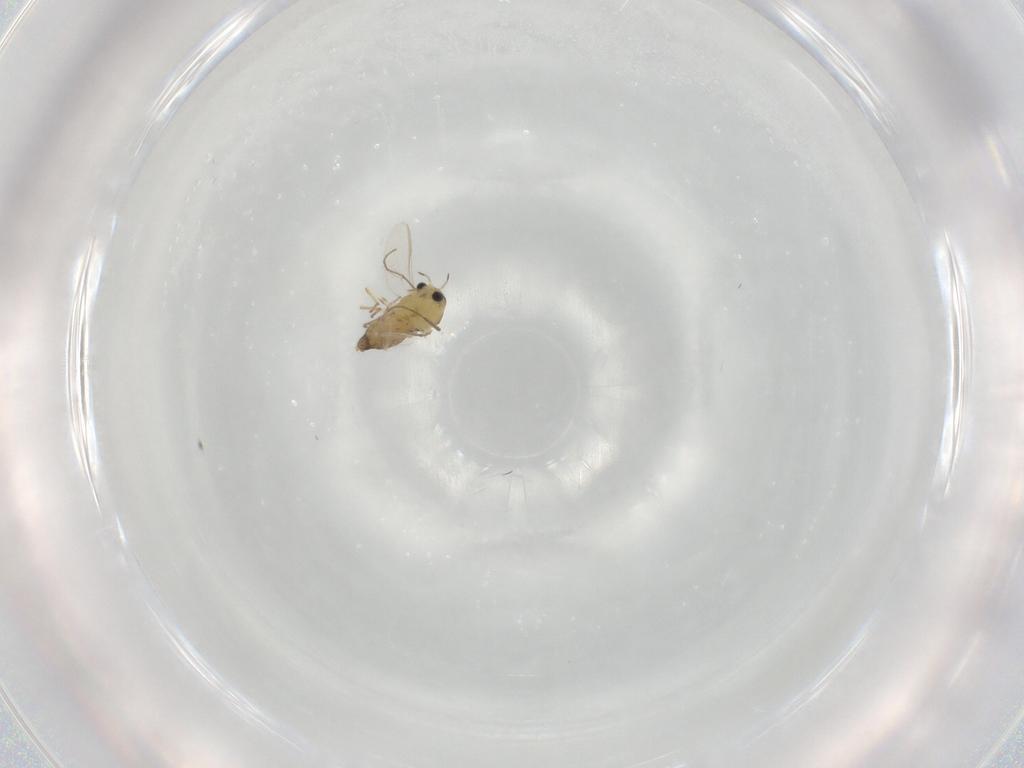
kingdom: Animalia
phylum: Arthropoda
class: Insecta
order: Diptera
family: Chironomidae
